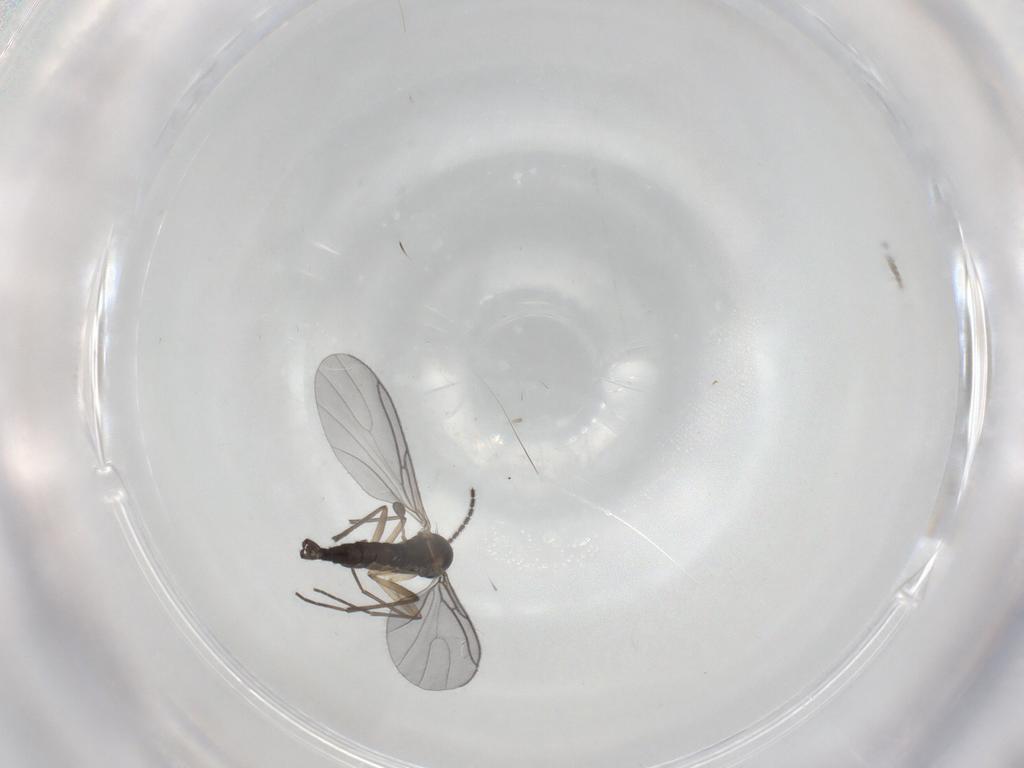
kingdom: Animalia
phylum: Arthropoda
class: Insecta
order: Diptera
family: Sciaridae
